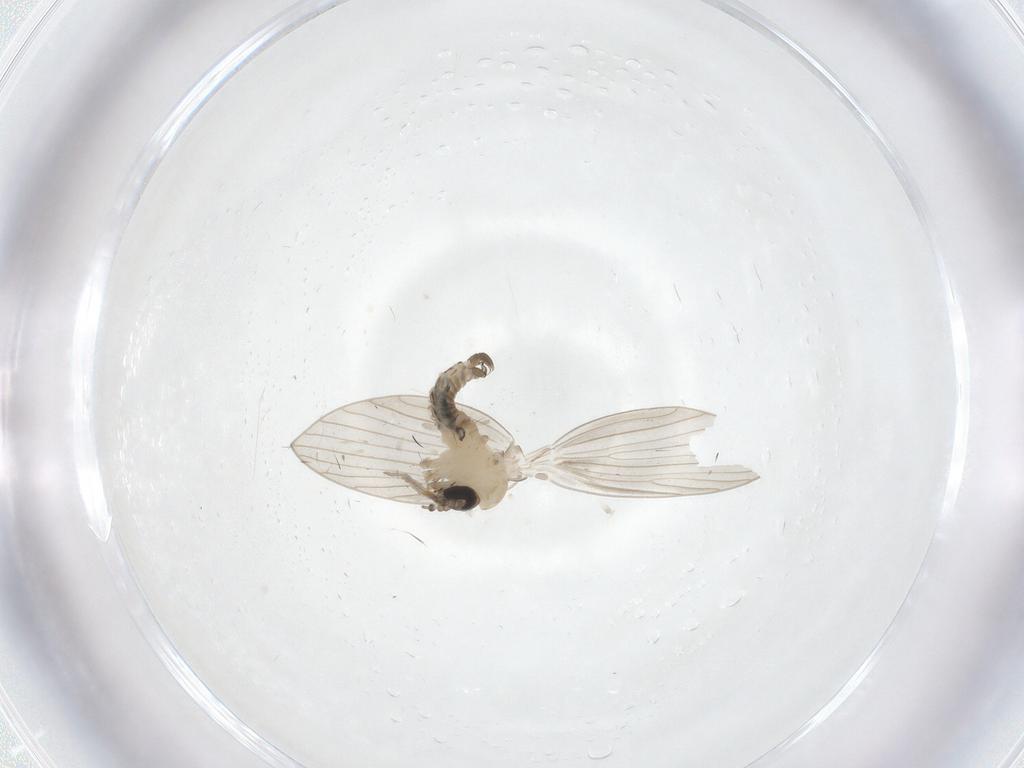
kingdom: Animalia
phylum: Arthropoda
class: Insecta
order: Diptera
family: Psychodidae
